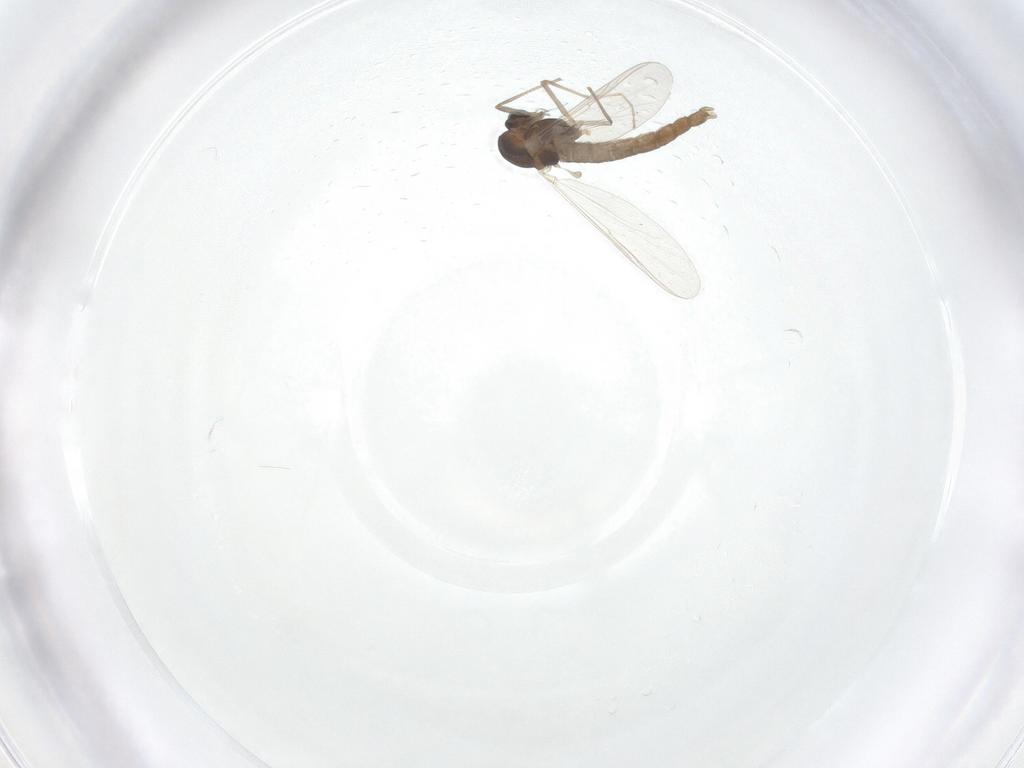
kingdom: Animalia
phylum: Arthropoda
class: Insecta
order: Diptera
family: Chironomidae
